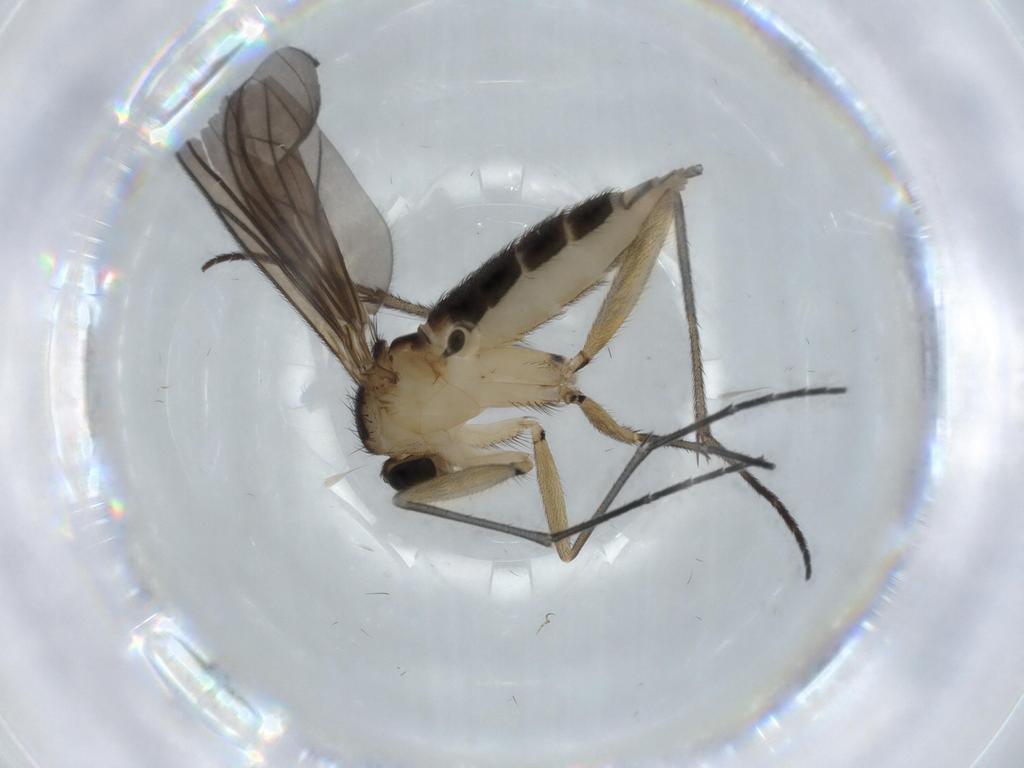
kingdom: Animalia
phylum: Arthropoda
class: Insecta
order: Diptera
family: Sciaridae
